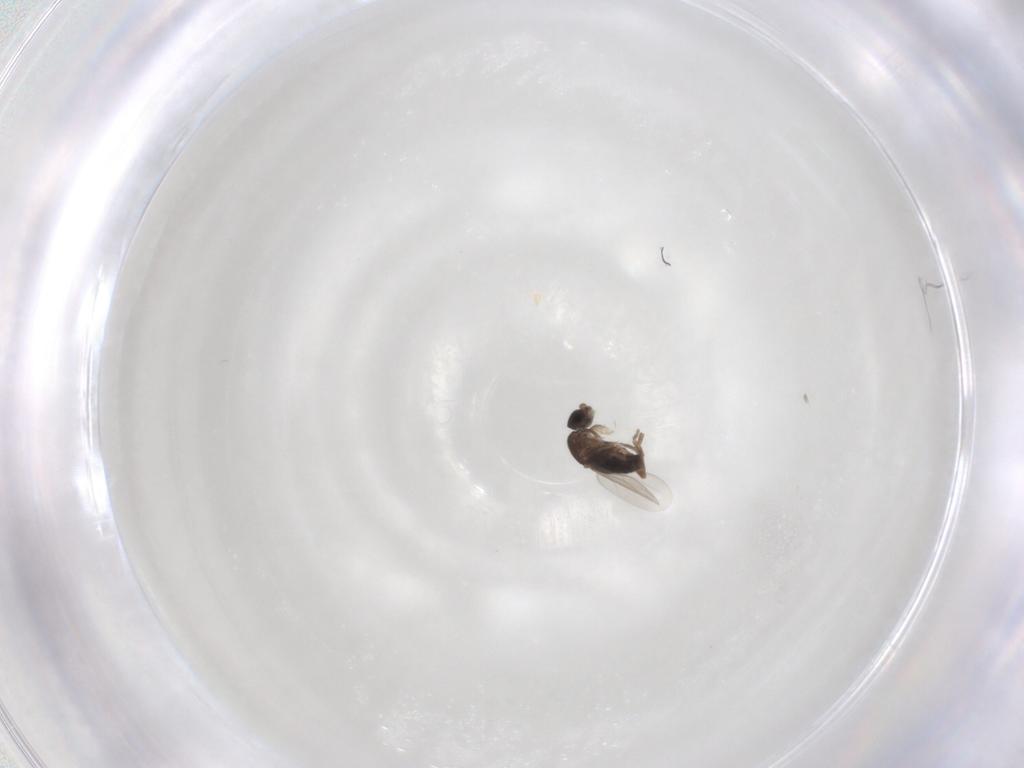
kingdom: Animalia
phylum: Arthropoda
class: Insecta
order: Diptera
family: Phoridae
